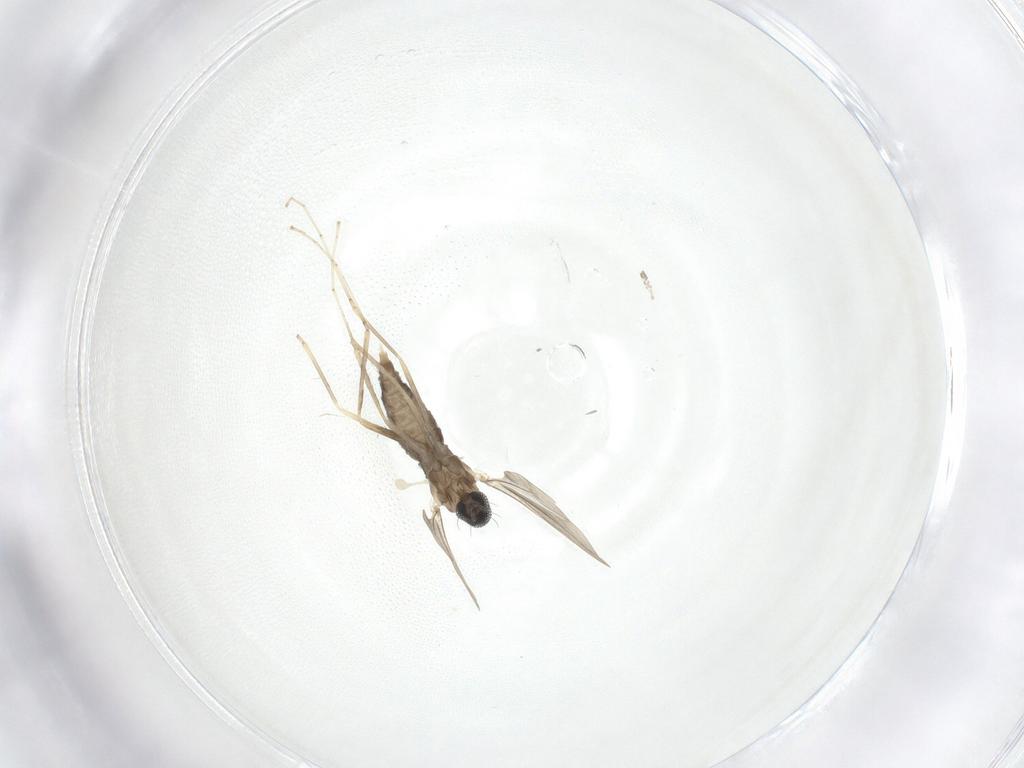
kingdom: Animalia
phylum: Arthropoda
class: Insecta
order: Diptera
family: Cecidomyiidae
